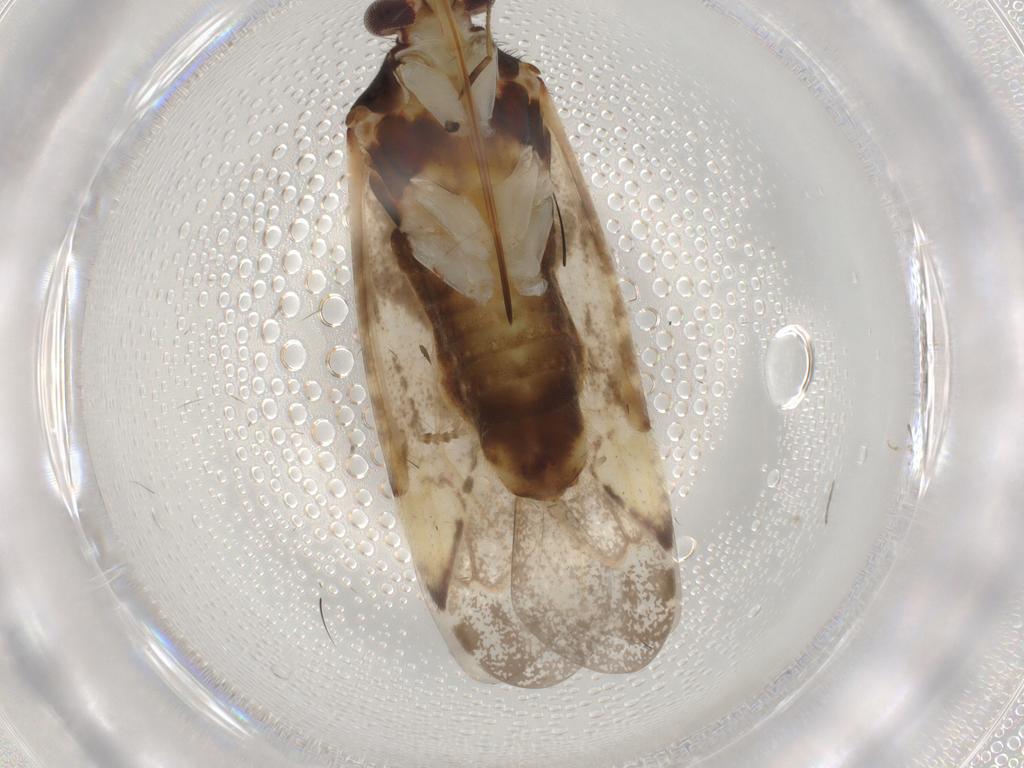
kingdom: Animalia
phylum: Arthropoda
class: Insecta
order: Hemiptera
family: Miridae
